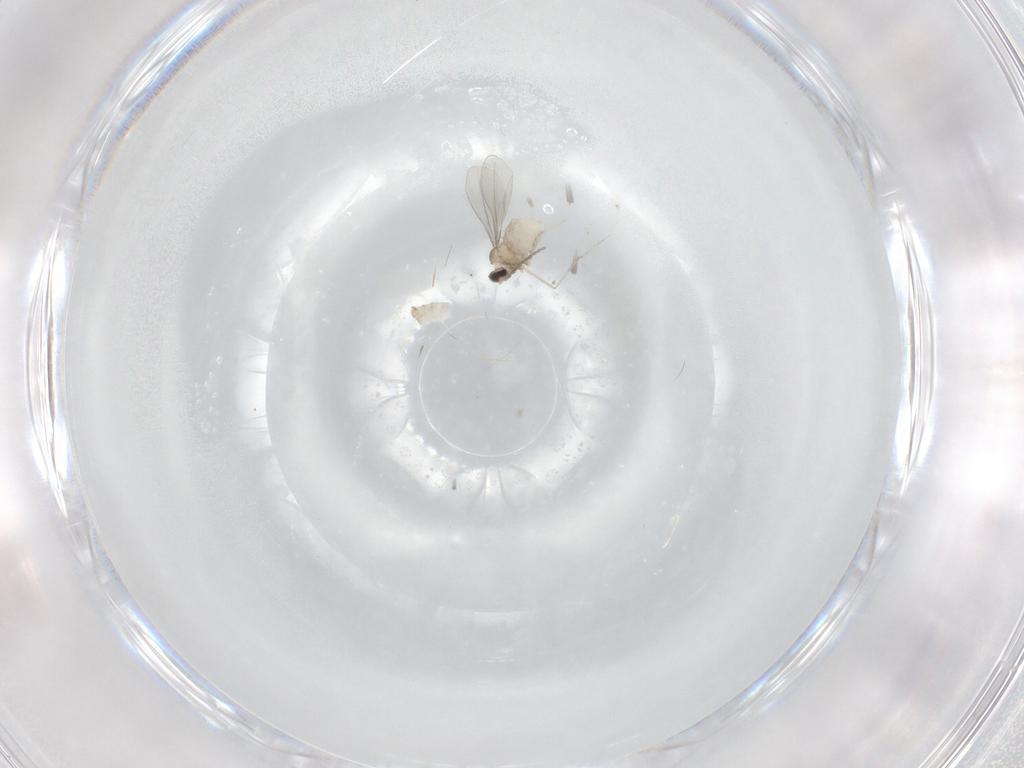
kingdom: Animalia
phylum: Arthropoda
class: Insecta
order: Diptera
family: Cecidomyiidae
